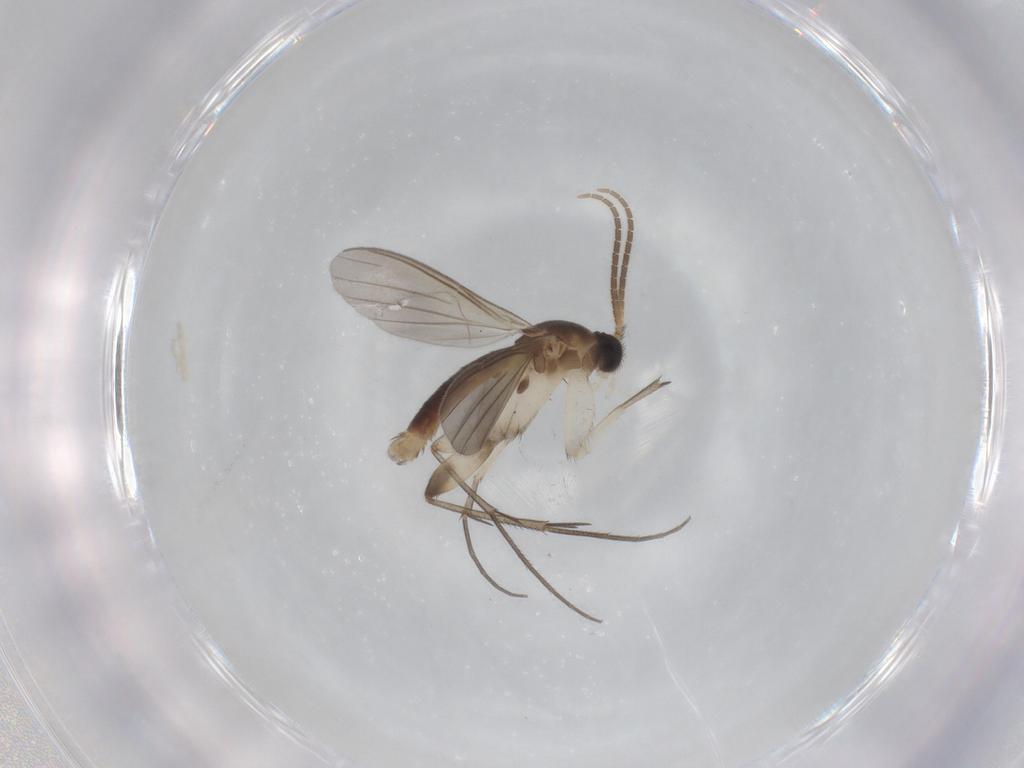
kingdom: Animalia
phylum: Arthropoda
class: Insecta
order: Diptera
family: Mycetophilidae
